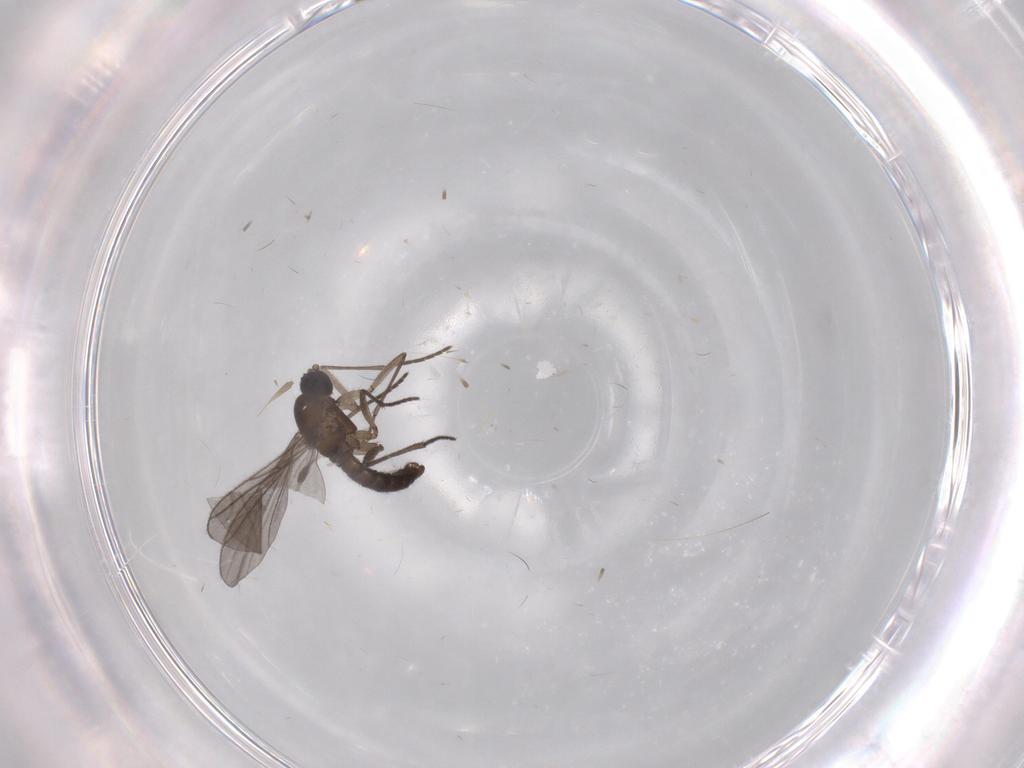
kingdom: Animalia
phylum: Arthropoda
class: Insecta
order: Diptera
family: Sciaridae
